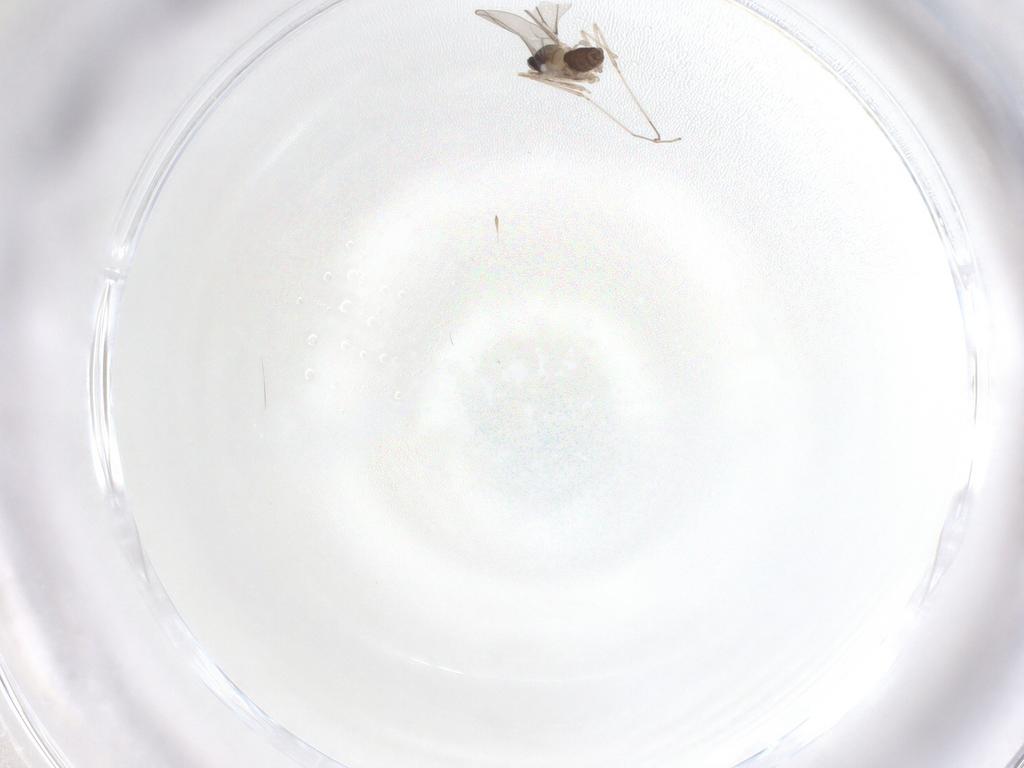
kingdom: Animalia
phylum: Arthropoda
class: Insecta
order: Diptera
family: Cecidomyiidae
